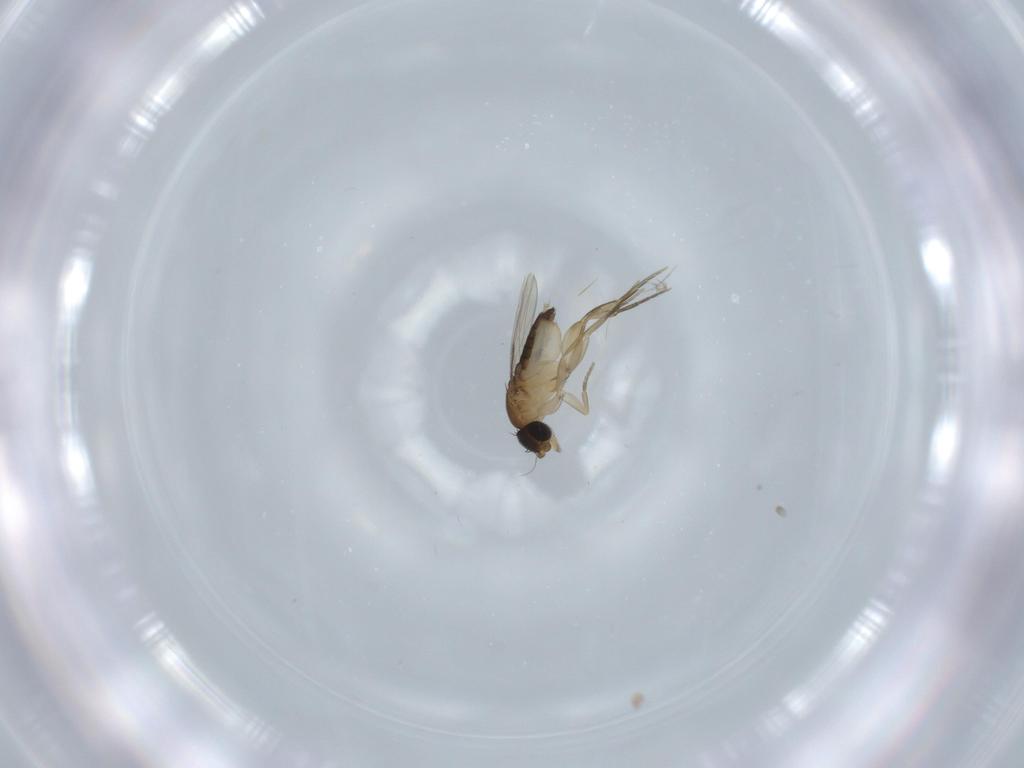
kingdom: Animalia
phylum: Arthropoda
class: Insecta
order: Diptera
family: Phoridae
